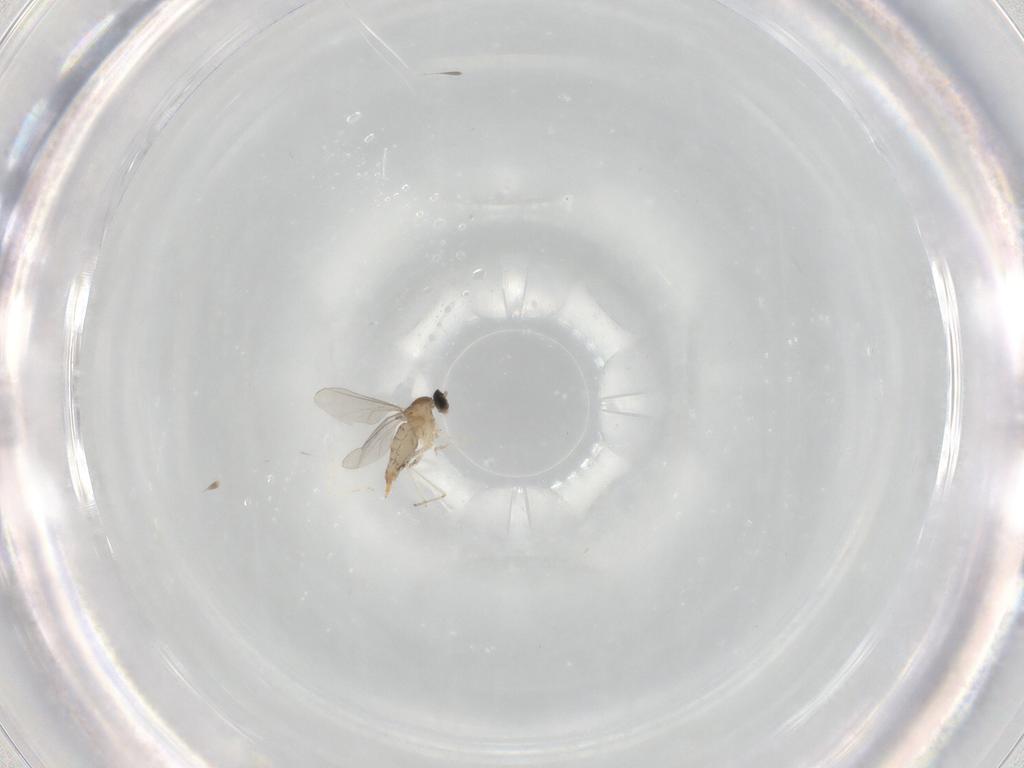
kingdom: Animalia
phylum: Arthropoda
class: Insecta
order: Diptera
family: Cecidomyiidae
